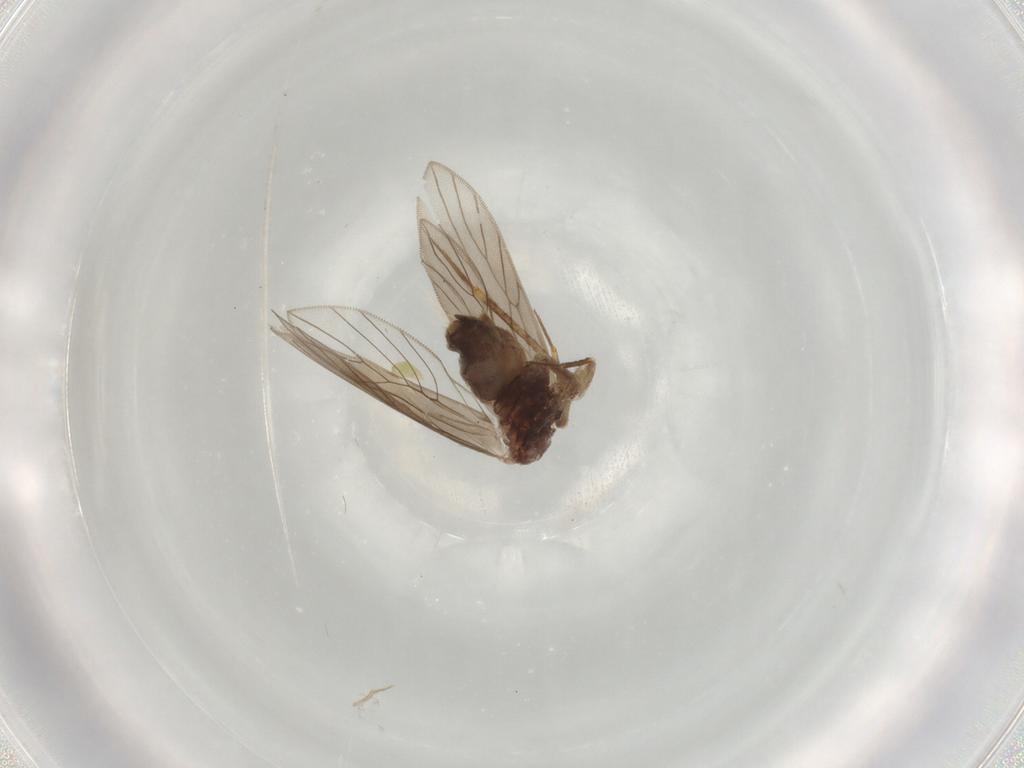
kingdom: Animalia
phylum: Arthropoda
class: Insecta
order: Psocodea
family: Lepidopsocidae
